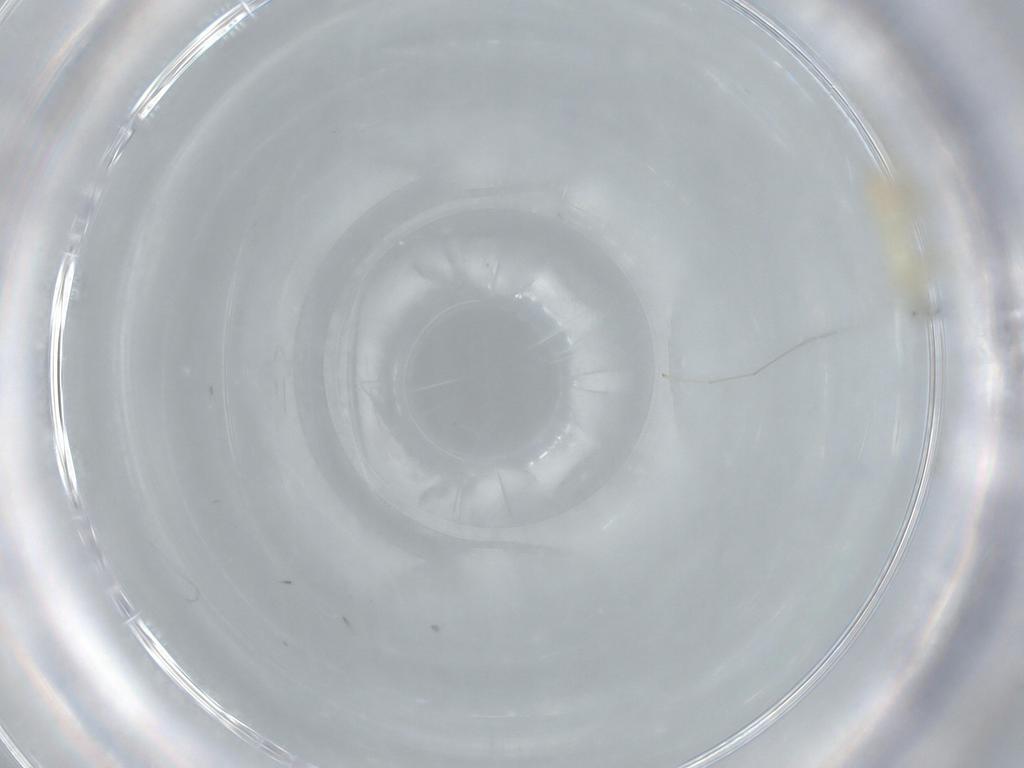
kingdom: Animalia
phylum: Arthropoda
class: Insecta
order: Diptera
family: Cecidomyiidae
